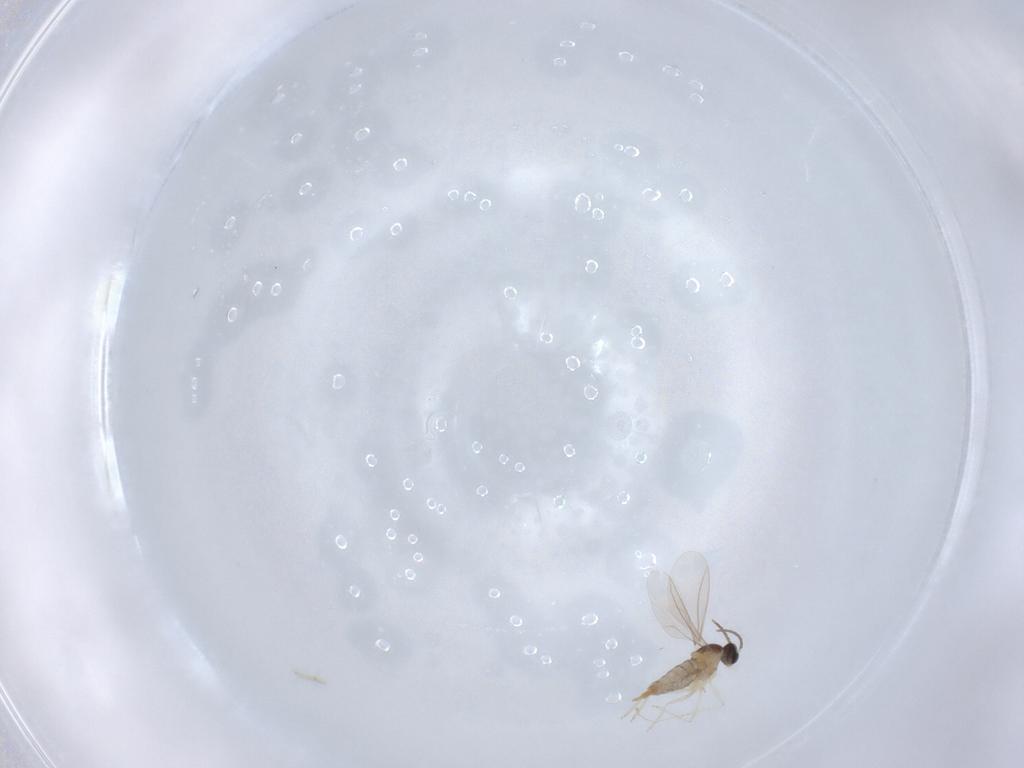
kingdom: Animalia
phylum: Arthropoda
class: Insecta
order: Diptera
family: Cecidomyiidae
